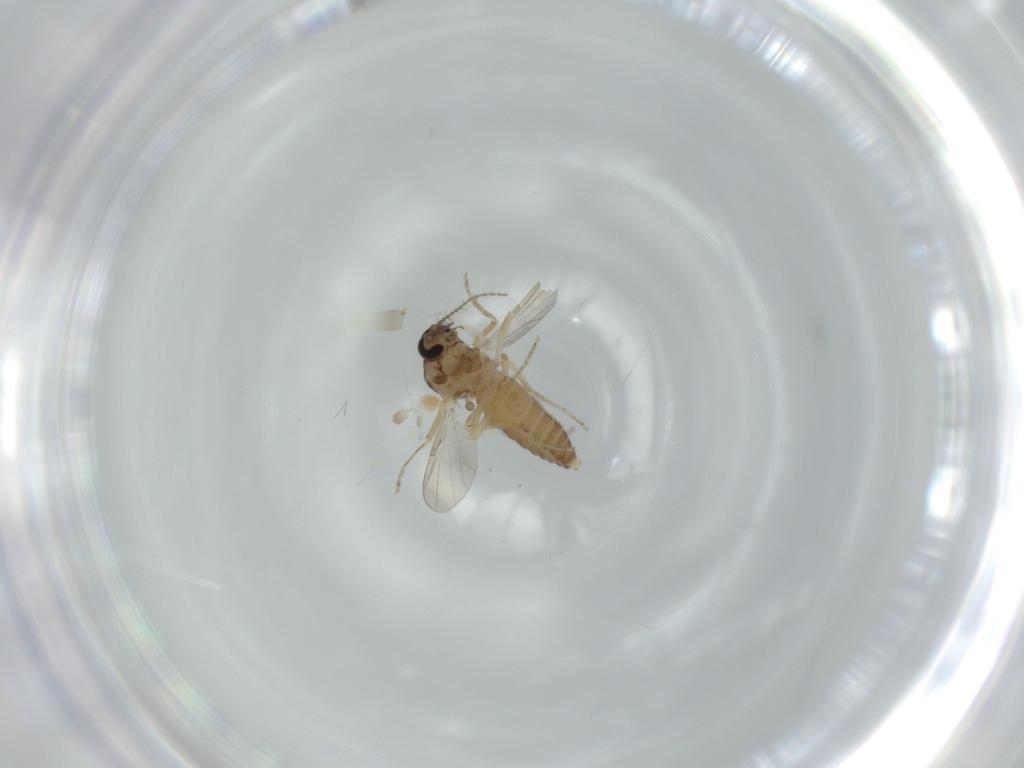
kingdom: Animalia
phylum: Arthropoda
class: Insecta
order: Diptera
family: Ceratopogonidae
